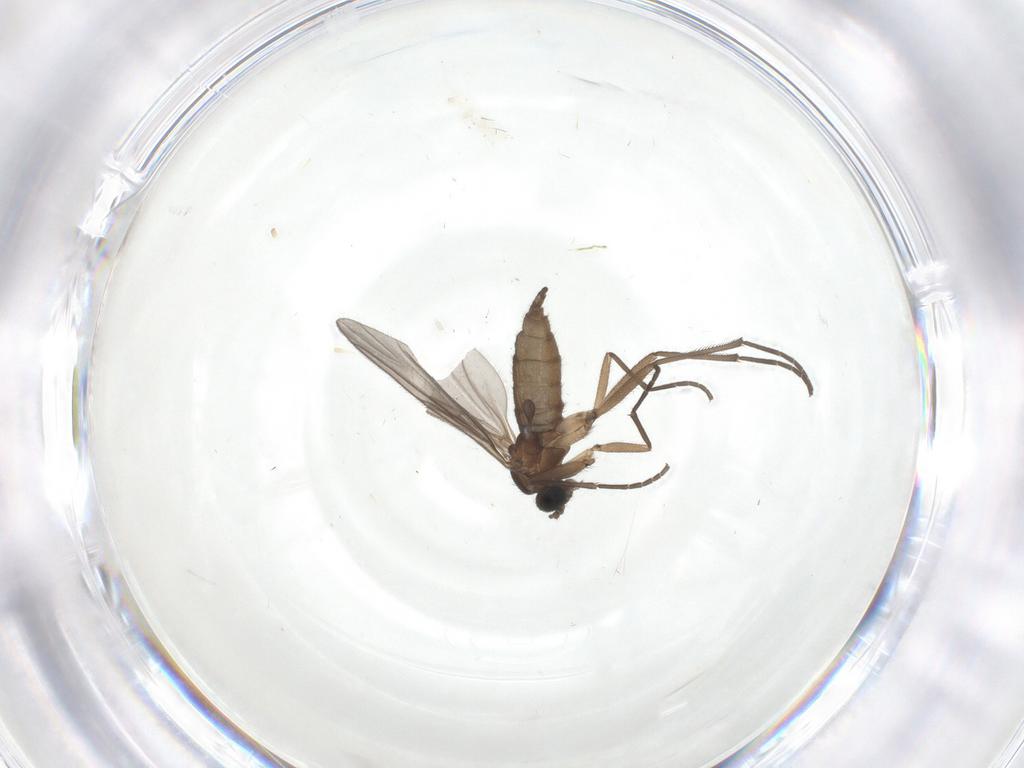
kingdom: Animalia
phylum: Arthropoda
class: Insecta
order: Diptera
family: Sciaridae
